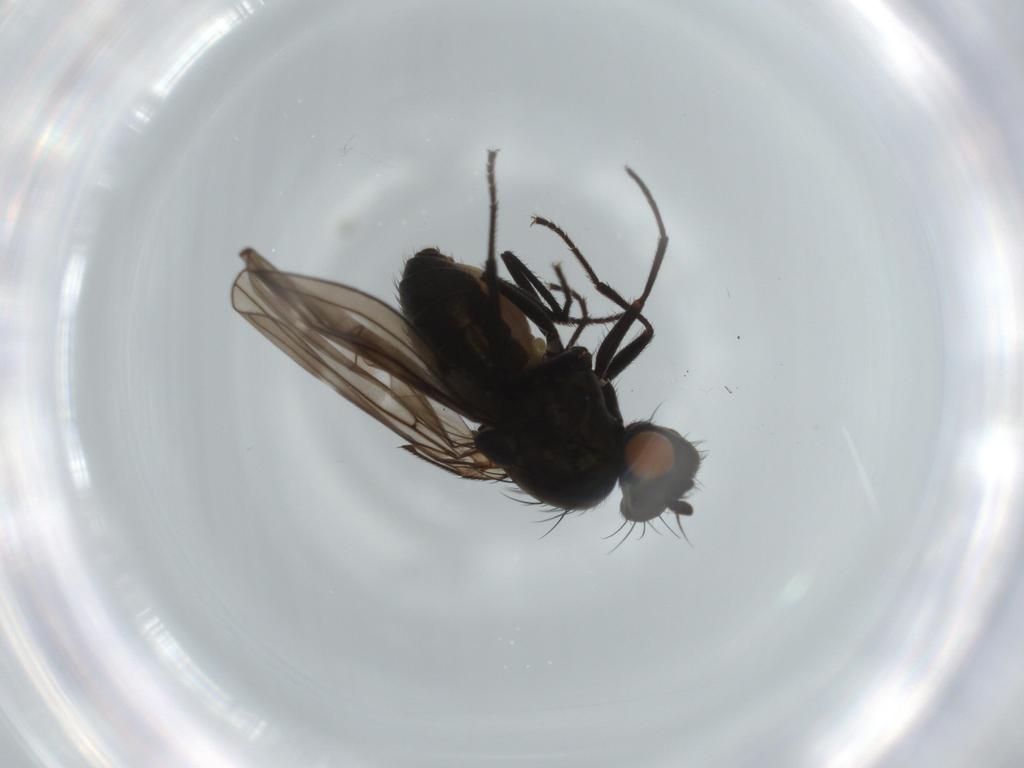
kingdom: Animalia
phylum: Arthropoda
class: Insecta
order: Diptera
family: Ephydridae
